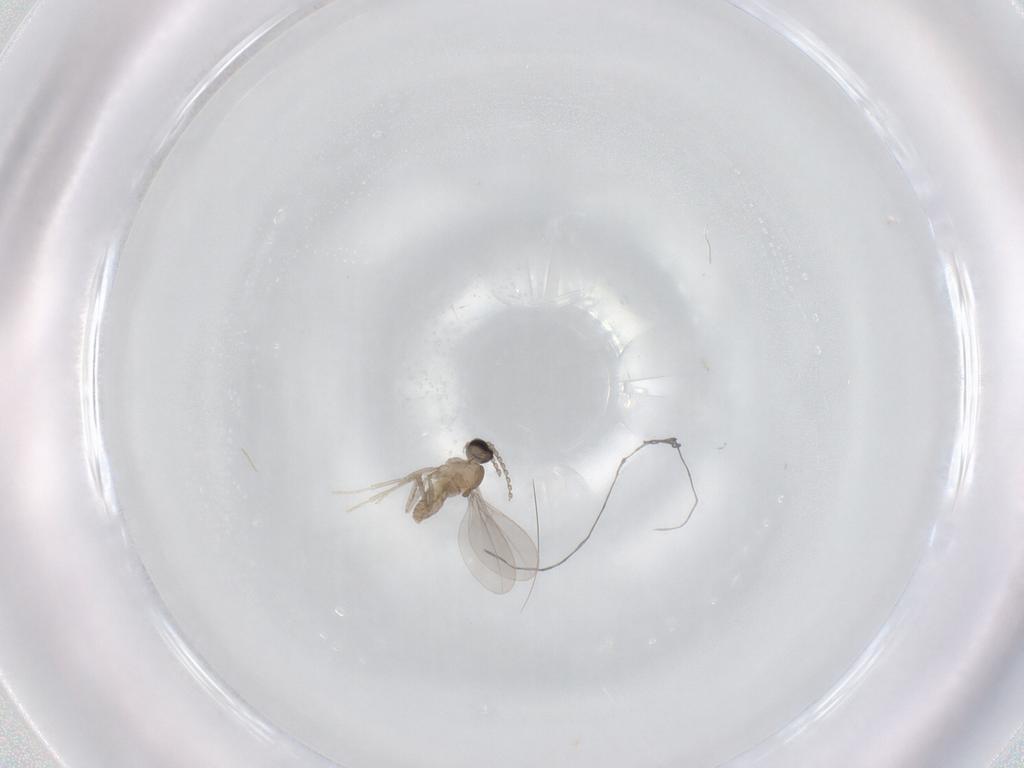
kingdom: Animalia
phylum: Arthropoda
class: Insecta
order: Diptera
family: Cecidomyiidae
